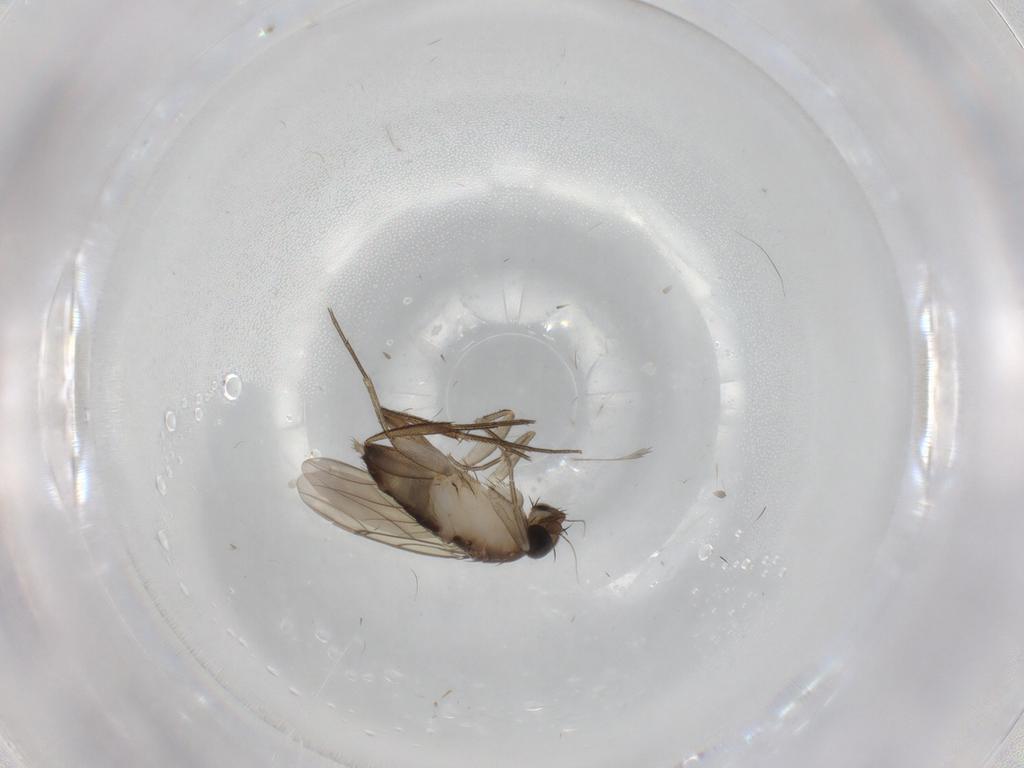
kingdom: Animalia
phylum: Arthropoda
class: Insecta
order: Diptera
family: Phoridae
